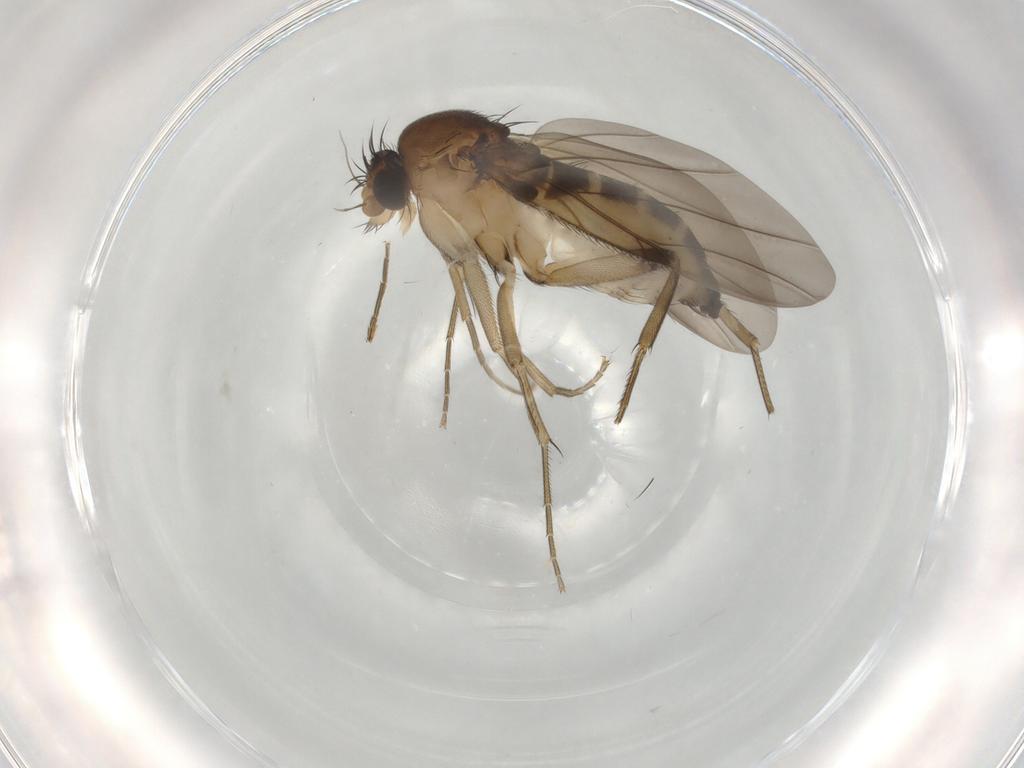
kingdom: Animalia
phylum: Arthropoda
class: Insecta
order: Diptera
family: Phoridae
